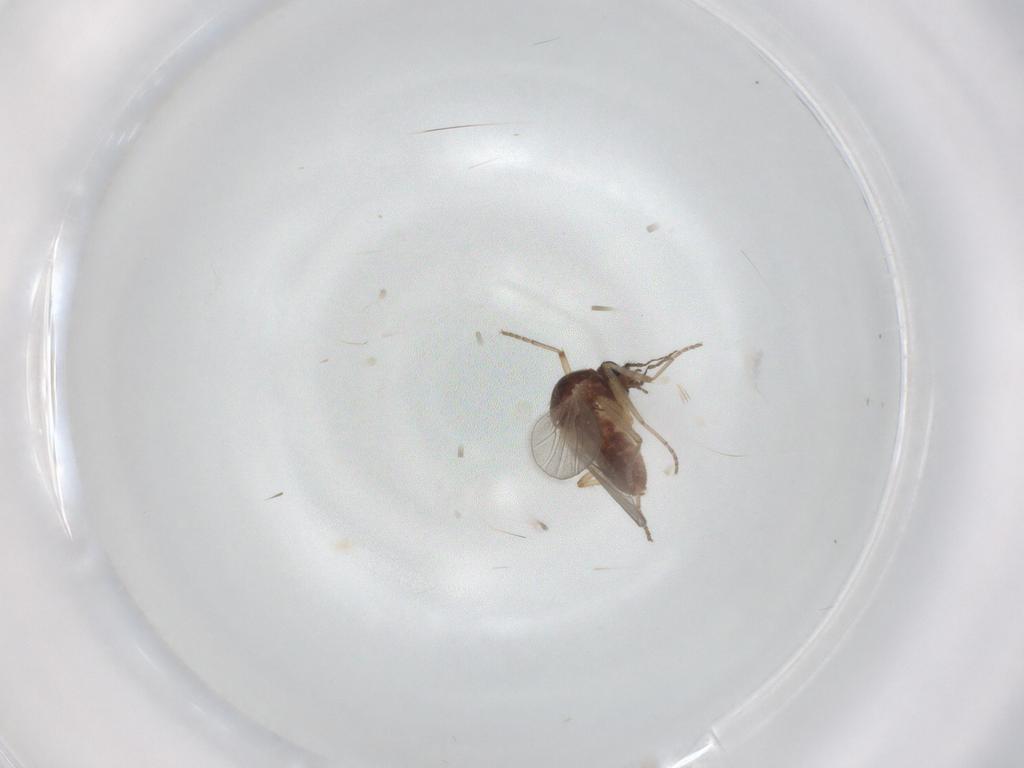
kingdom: Animalia
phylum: Arthropoda
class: Insecta
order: Diptera
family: Ceratopogonidae
